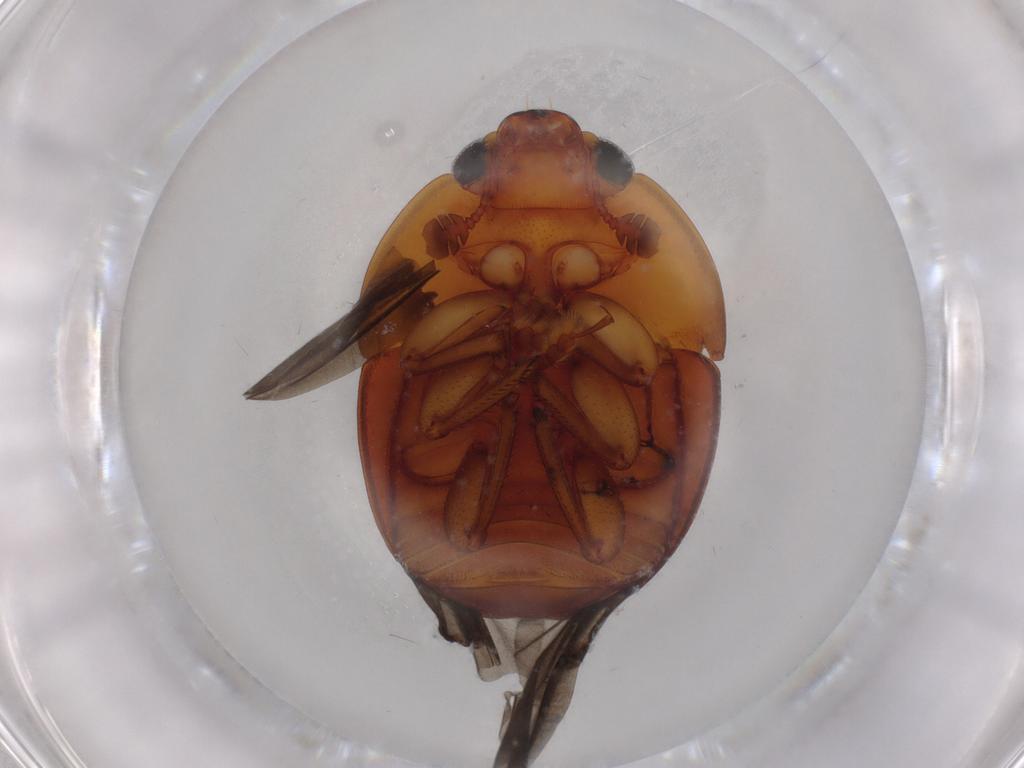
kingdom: Animalia
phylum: Arthropoda
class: Insecta
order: Coleoptera
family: Nitidulidae
